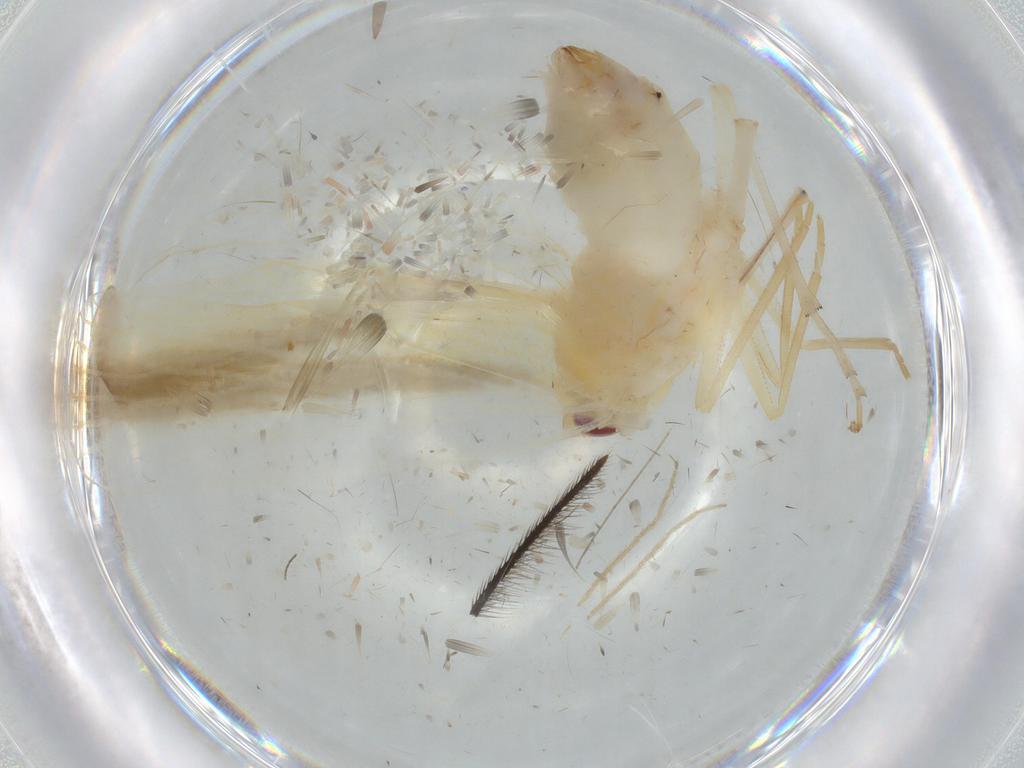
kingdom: Animalia
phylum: Arthropoda
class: Insecta
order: Hemiptera
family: Derbidae
